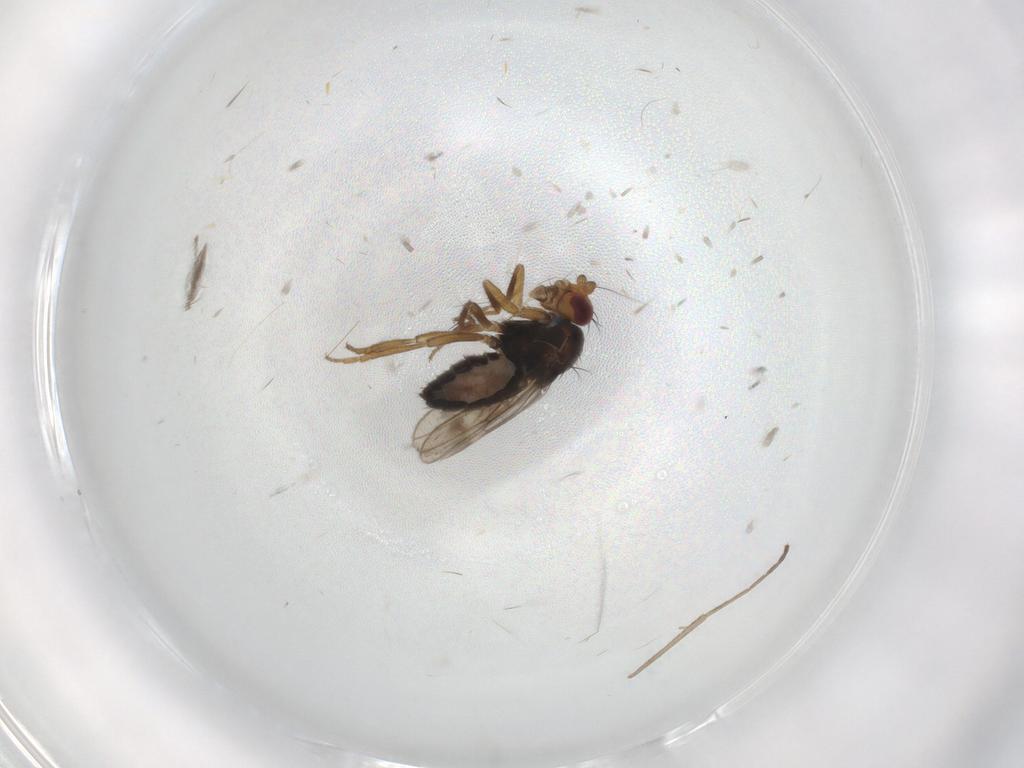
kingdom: Animalia
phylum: Arthropoda
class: Insecta
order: Diptera
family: Sphaeroceridae
